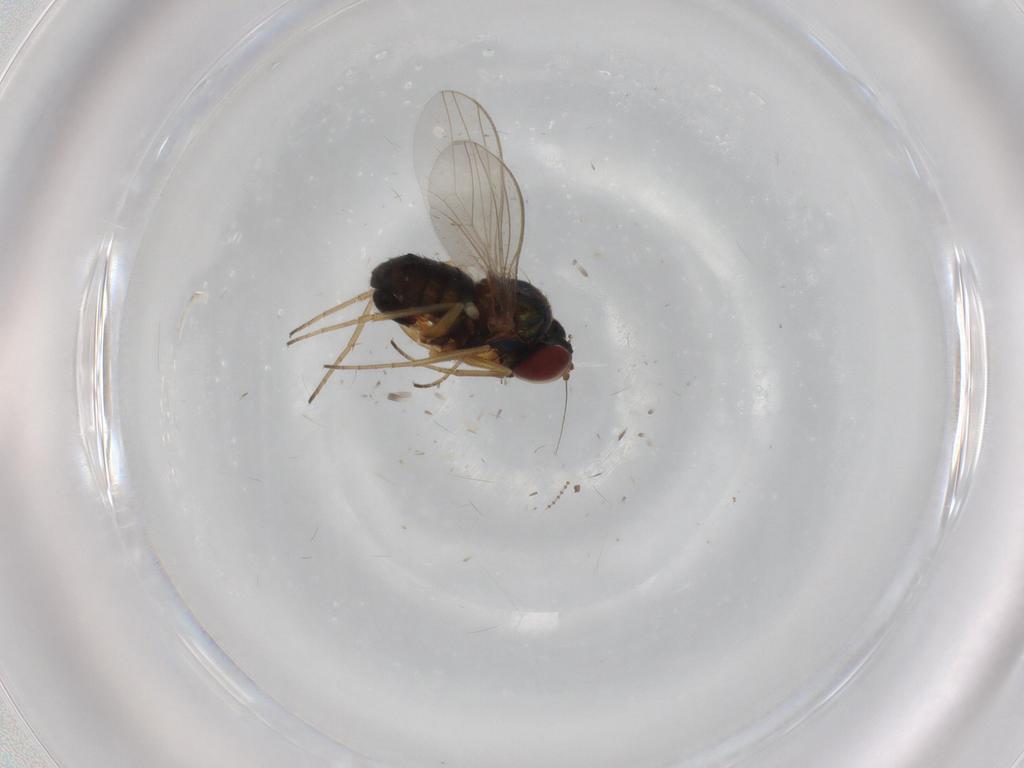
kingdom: Animalia
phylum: Arthropoda
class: Insecta
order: Diptera
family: Dolichopodidae
